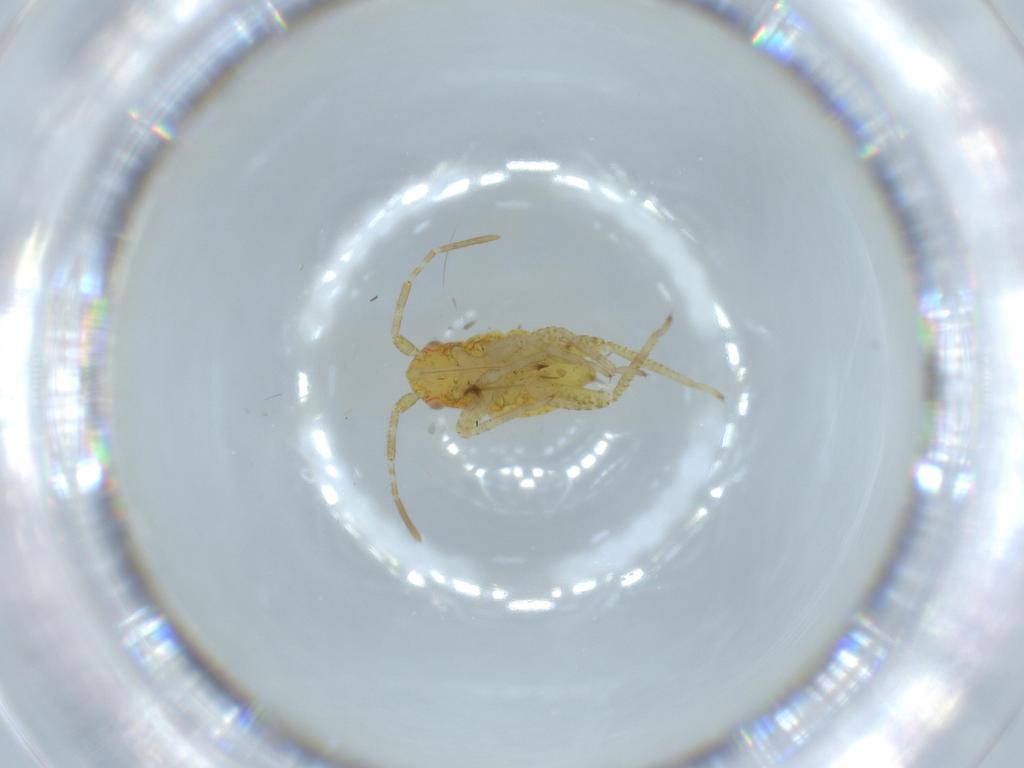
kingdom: Animalia
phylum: Arthropoda
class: Insecta
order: Hemiptera
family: Miridae
